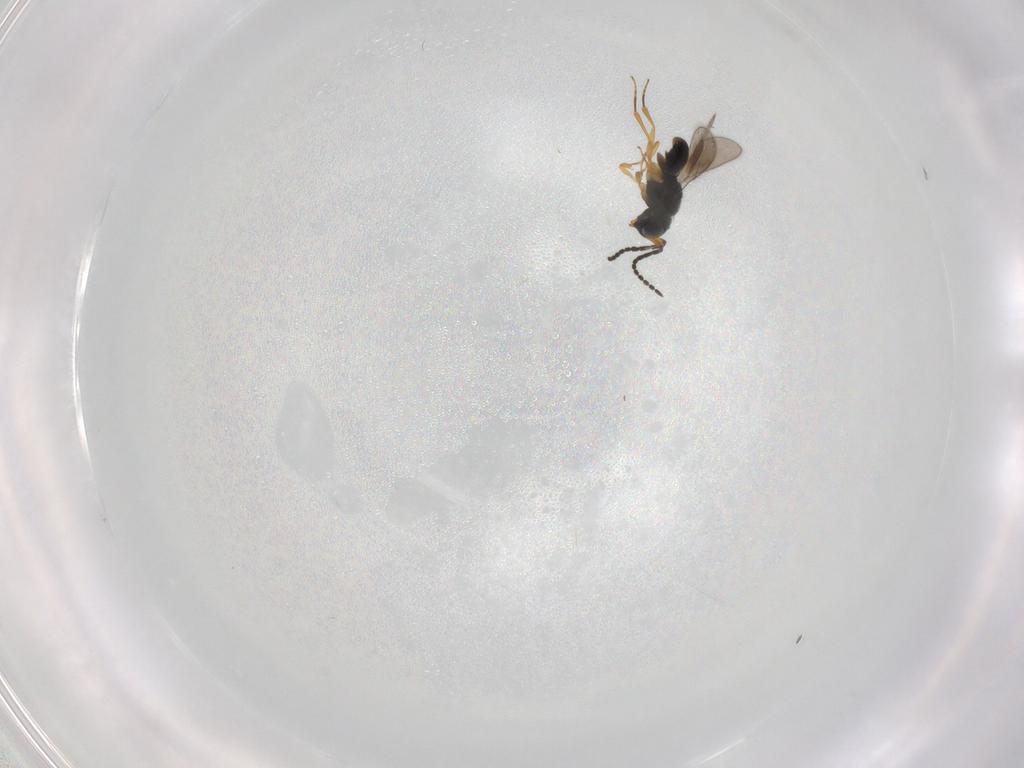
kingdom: Animalia
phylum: Arthropoda
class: Insecta
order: Hymenoptera
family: Scelionidae
